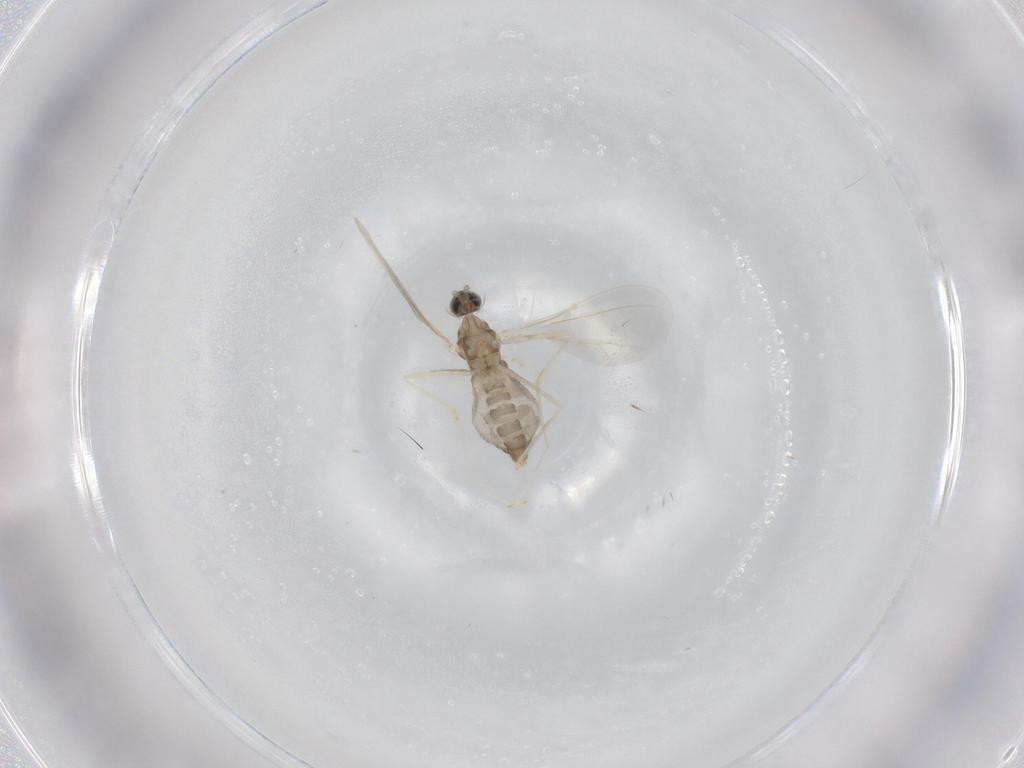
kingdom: Animalia
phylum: Arthropoda
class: Insecta
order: Diptera
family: Cecidomyiidae
